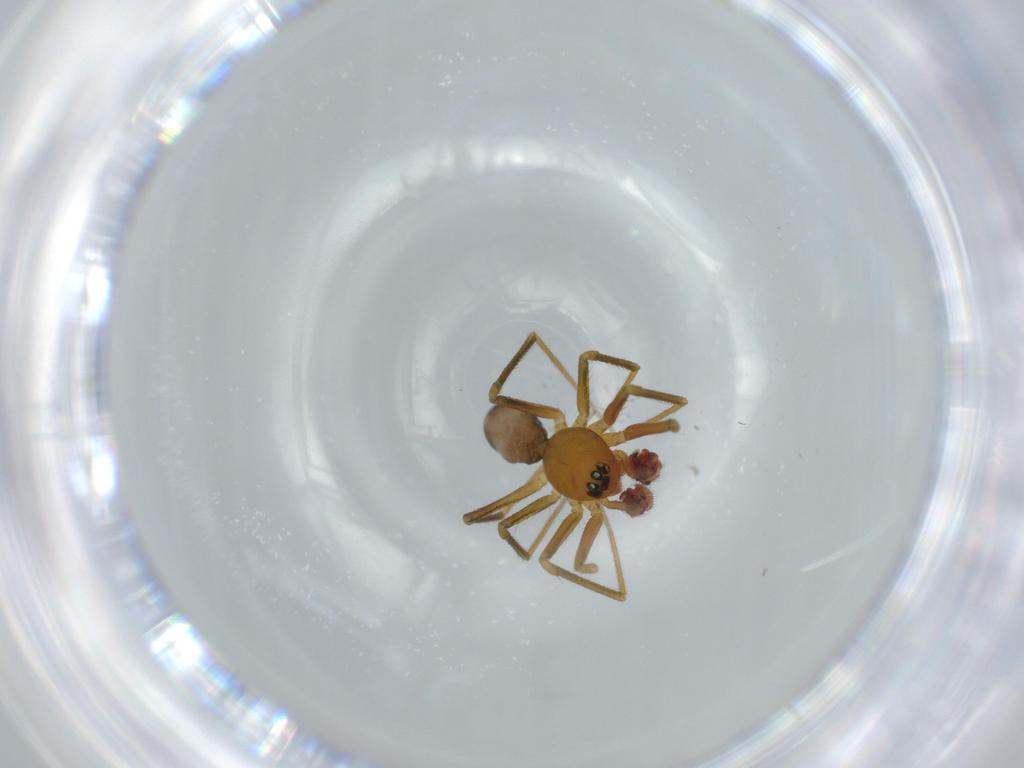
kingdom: Animalia
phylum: Arthropoda
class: Arachnida
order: Araneae
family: Linyphiidae
